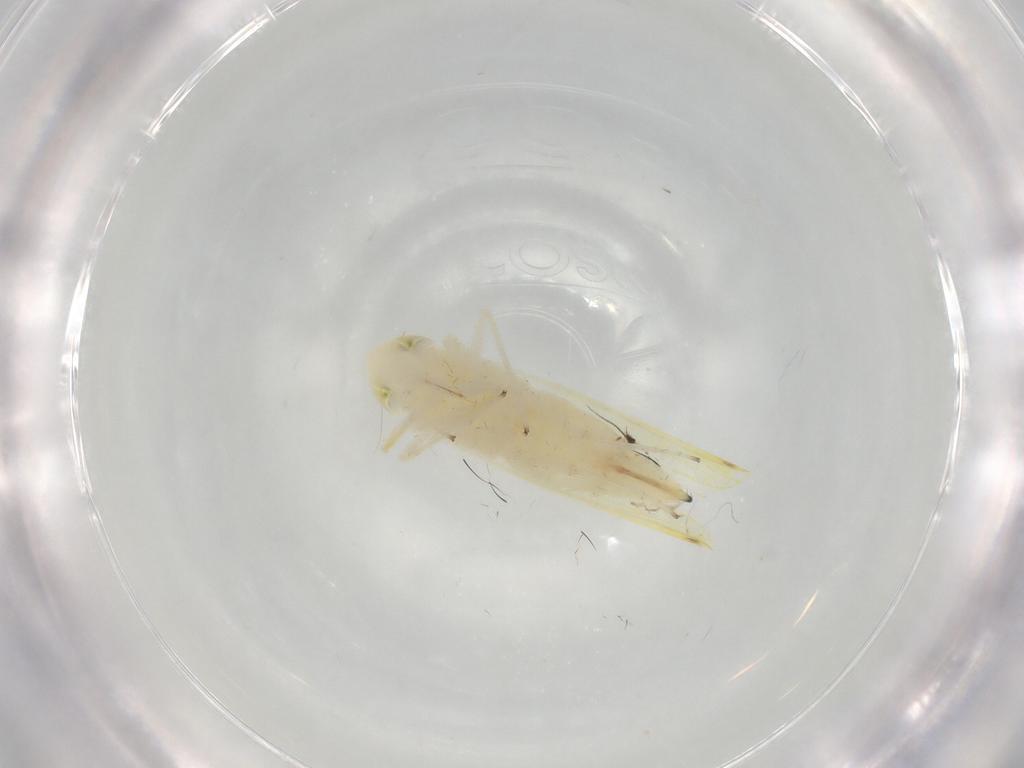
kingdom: Animalia
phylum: Arthropoda
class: Insecta
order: Hemiptera
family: Cicadellidae
